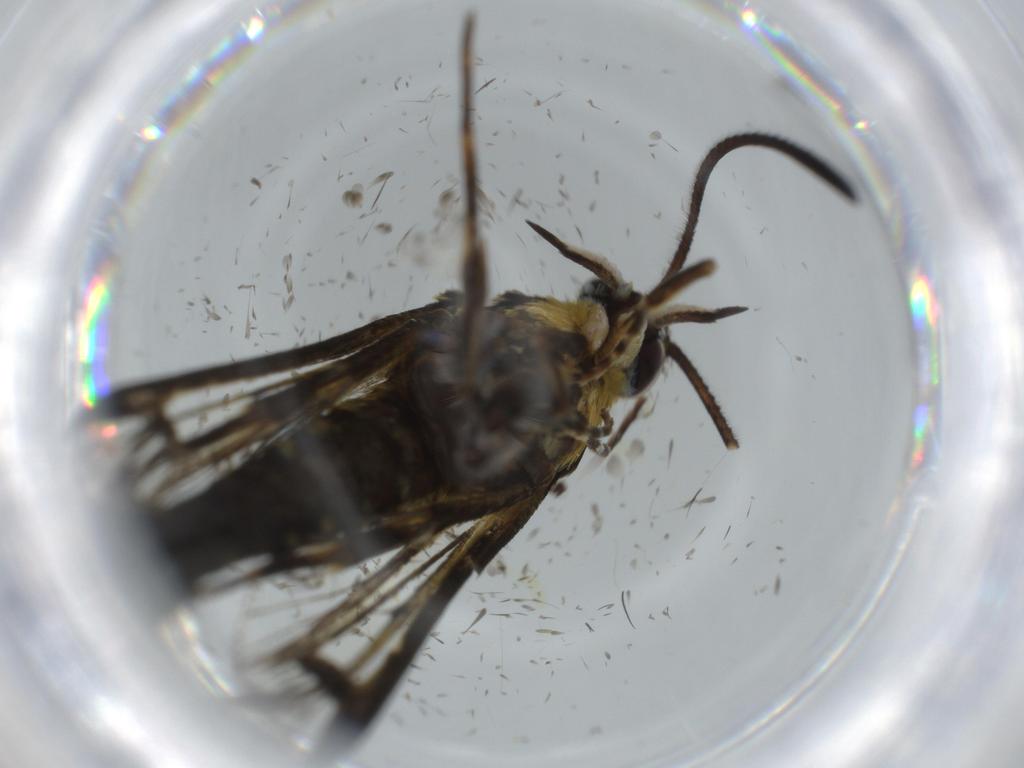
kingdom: Animalia
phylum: Arthropoda
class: Insecta
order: Lepidoptera
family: Sesiidae
